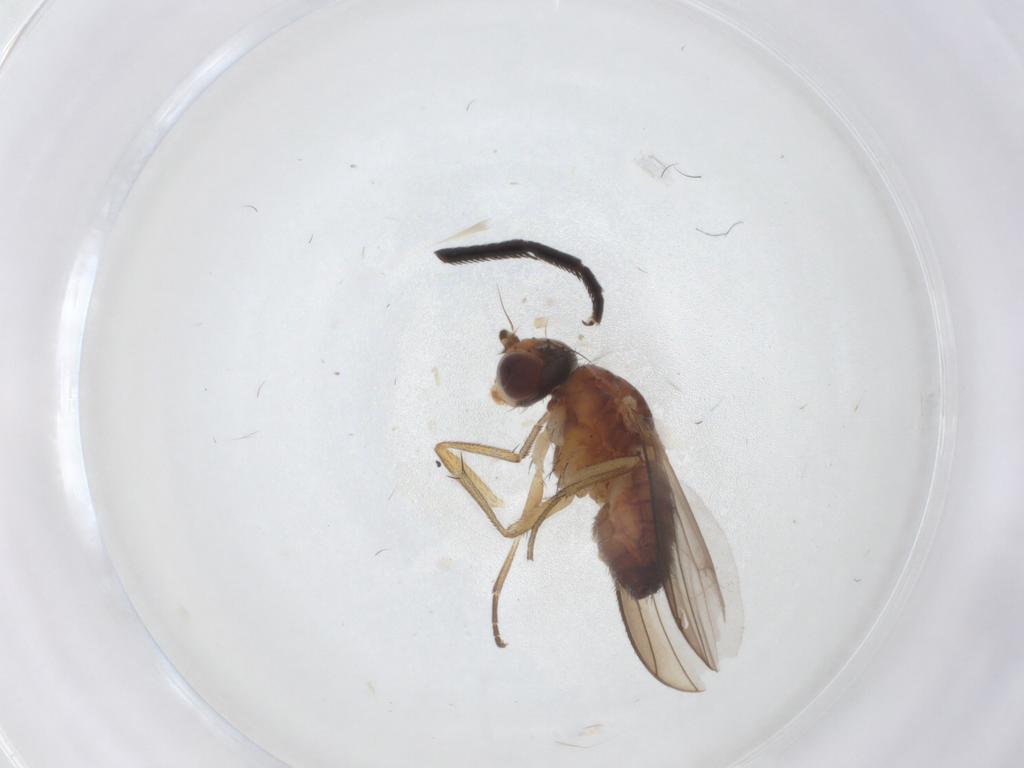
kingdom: Animalia
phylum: Arthropoda
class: Insecta
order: Diptera
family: Heleomyzidae
